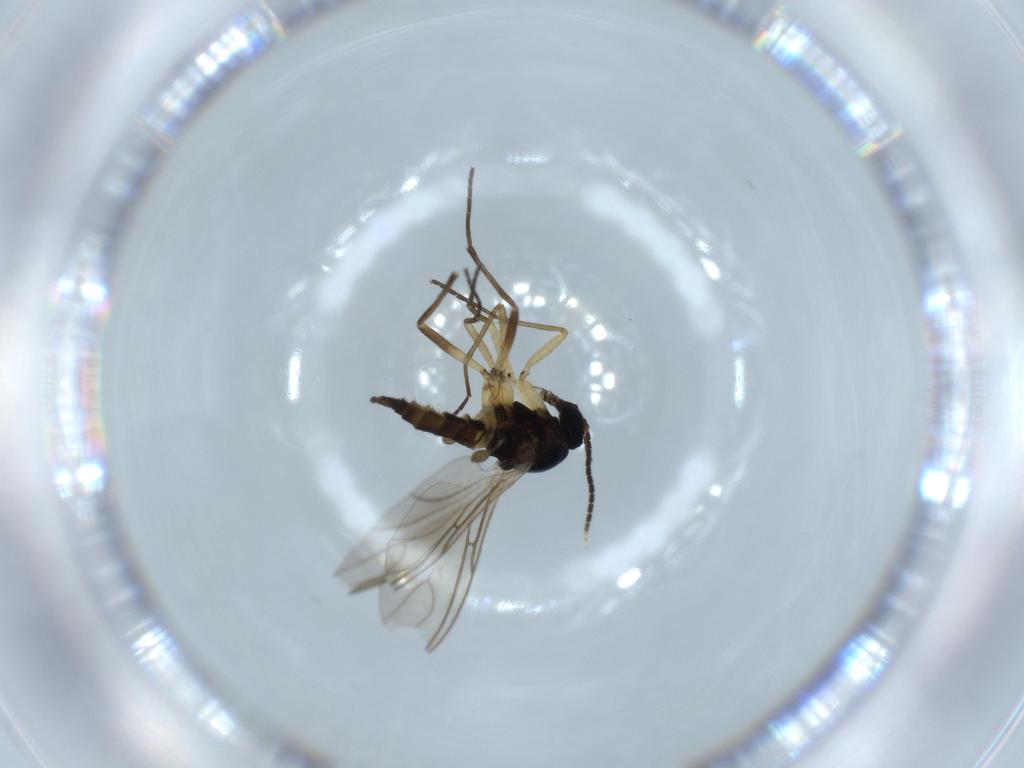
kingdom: Animalia
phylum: Arthropoda
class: Insecta
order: Diptera
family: Sciaridae
